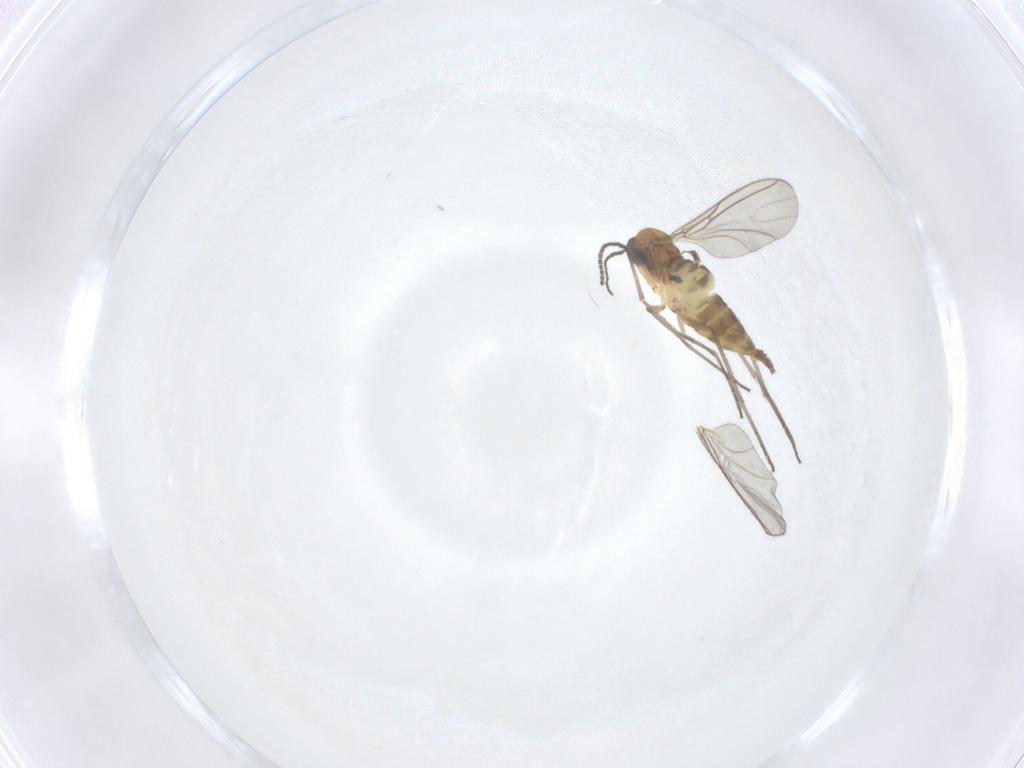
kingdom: Animalia
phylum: Arthropoda
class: Insecta
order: Diptera
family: Sciaridae
